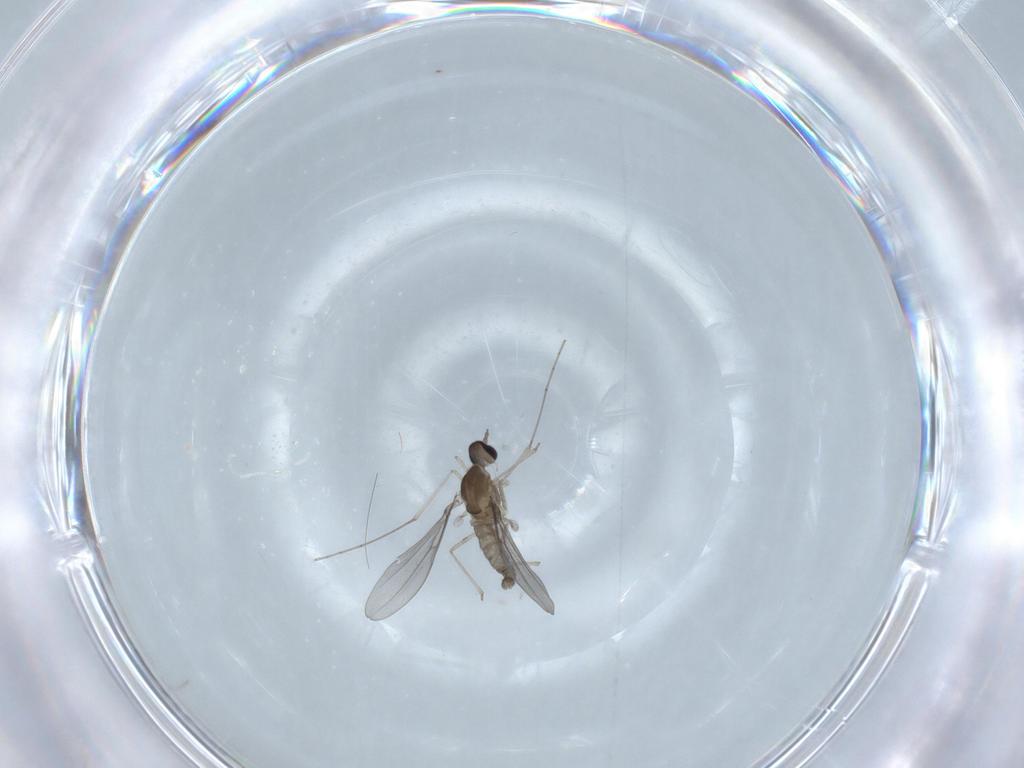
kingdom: Animalia
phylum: Arthropoda
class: Insecta
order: Diptera
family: Cecidomyiidae
